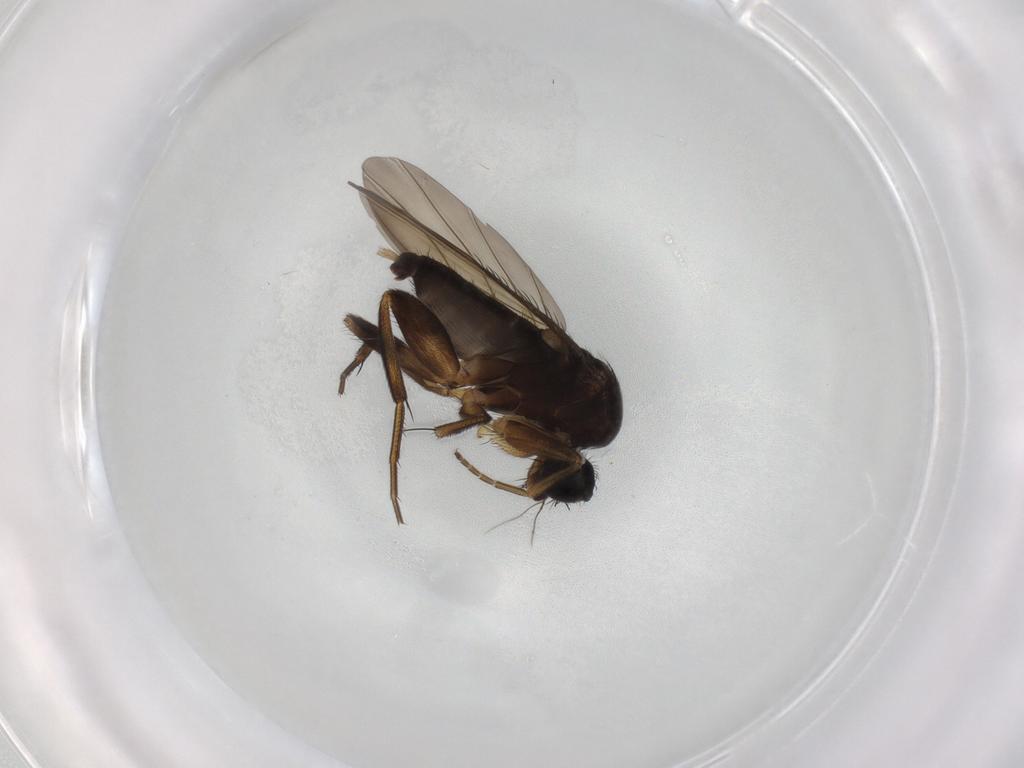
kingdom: Animalia
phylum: Arthropoda
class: Insecta
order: Diptera
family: Phoridae
